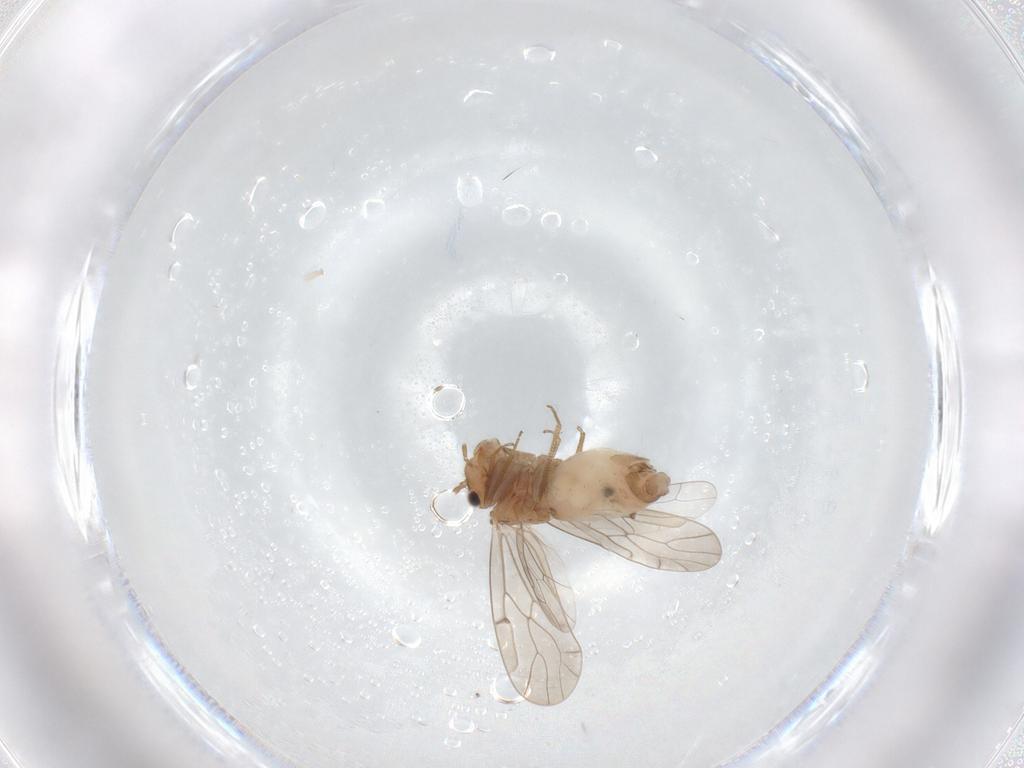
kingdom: Animalia
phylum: Arthropoda
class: Insecta
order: Psocodea
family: Ectopsocidae
